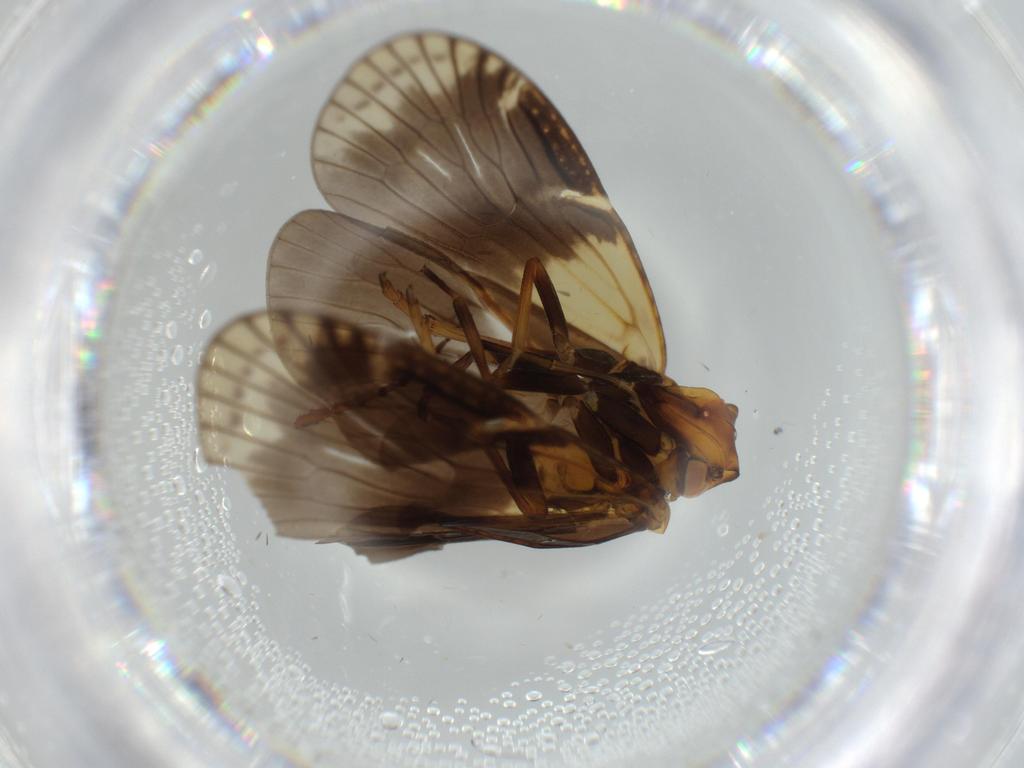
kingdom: Animalia
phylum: Arthropoda
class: Insecta
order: Hemiptera
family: Cixiidae
